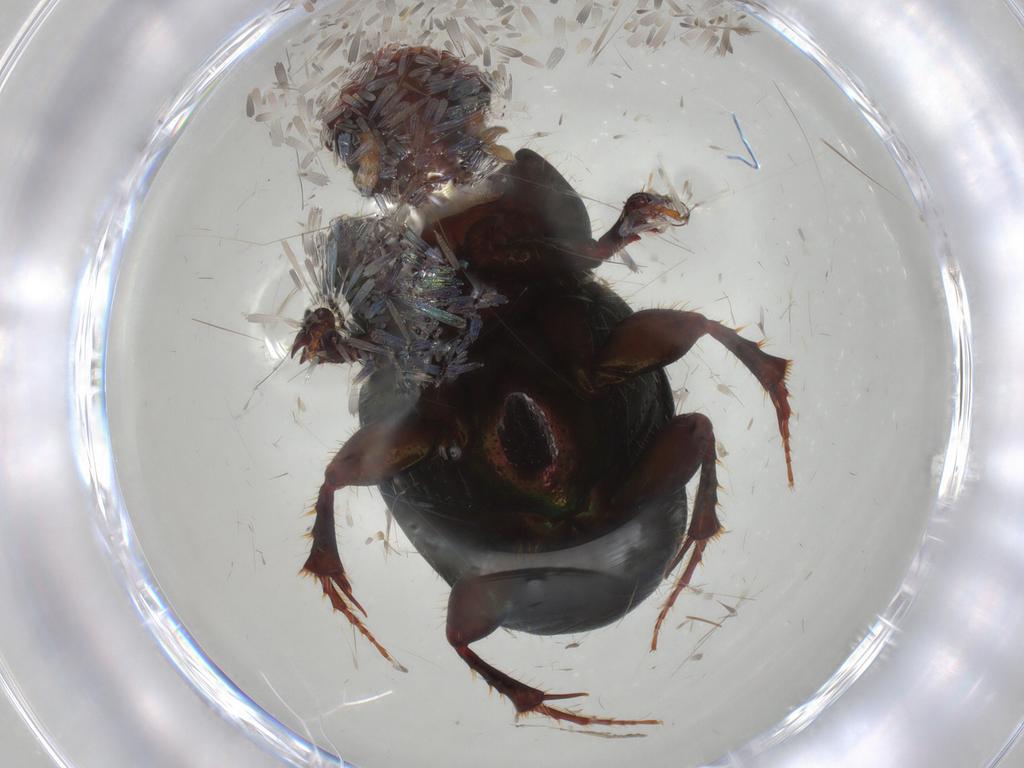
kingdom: Animalia
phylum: Arthropoda
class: Insecta
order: Coleoptera
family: Scarabaeidae
